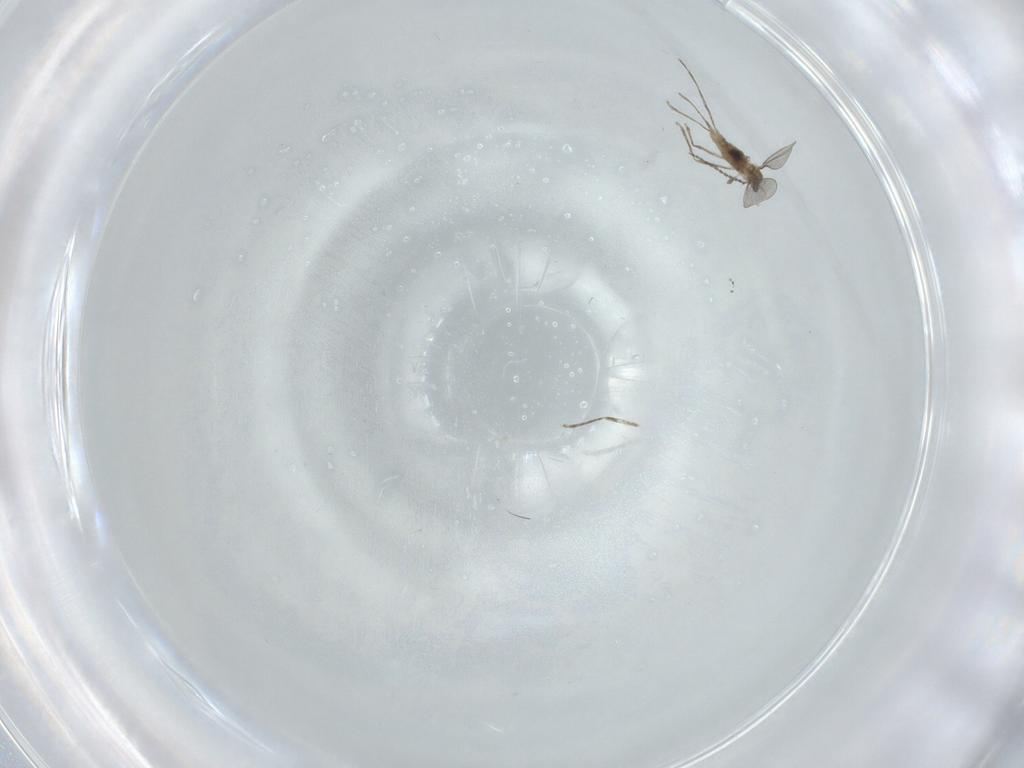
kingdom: Animalia
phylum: Arthropoda
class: Insecta
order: Diptera
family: Cecidomyiidae
